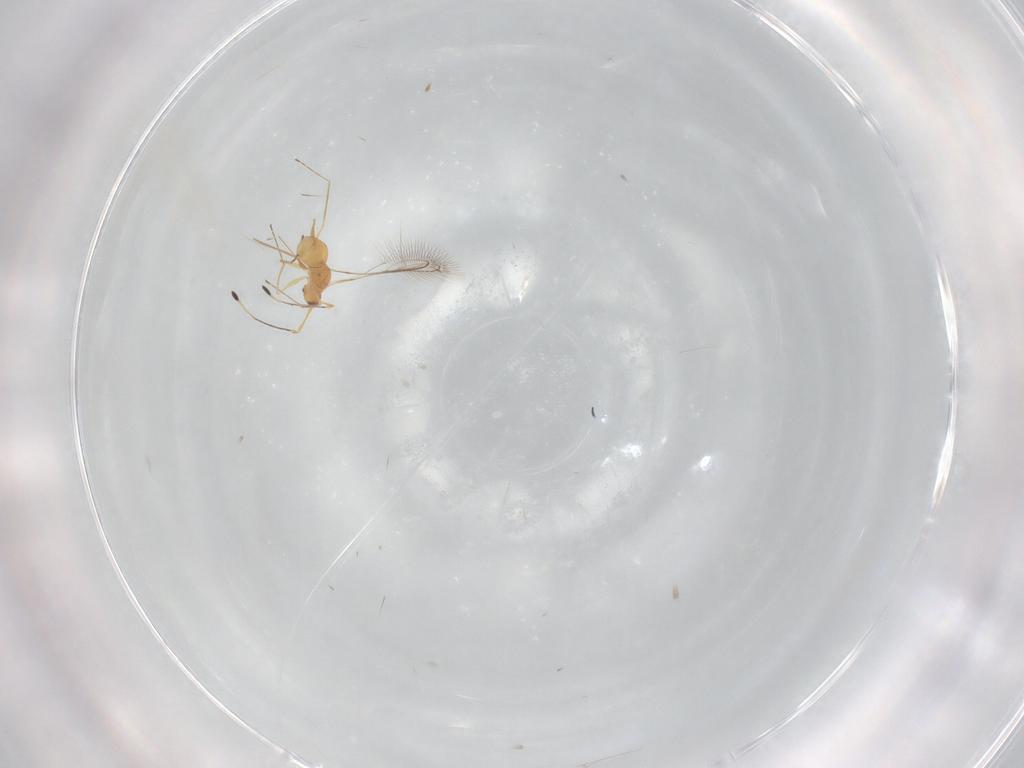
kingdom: Animalia
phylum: Arthropoda
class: Insecta
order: Hymenoptera
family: Mymaridae
